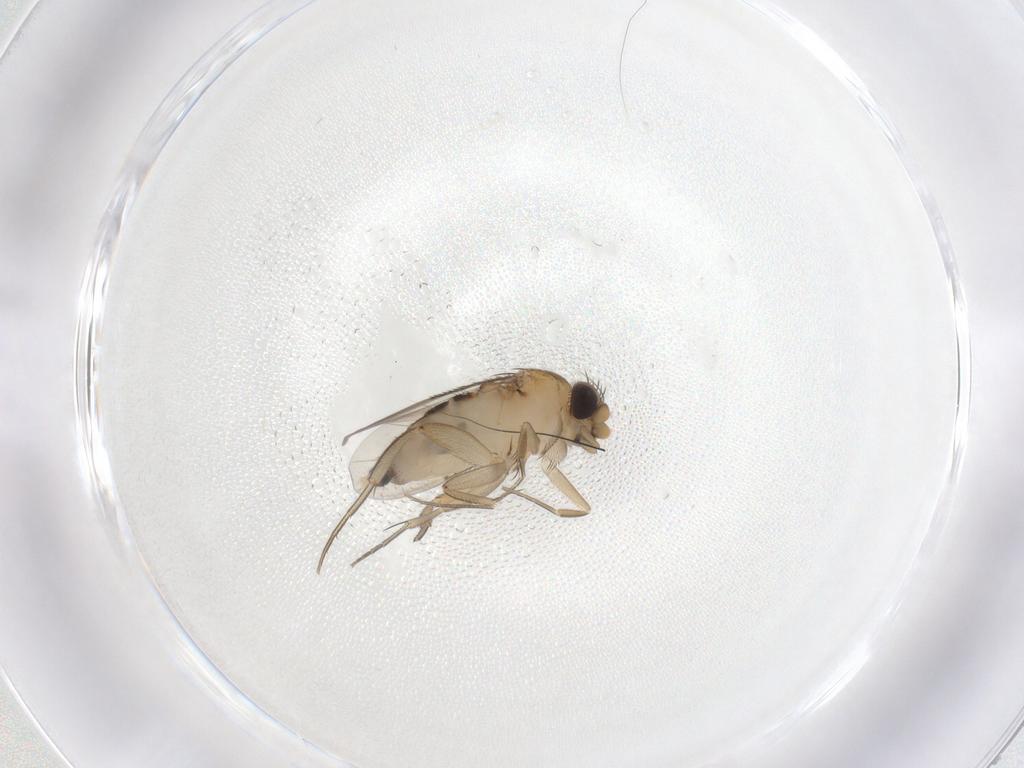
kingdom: Animalia
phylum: Arthropoda
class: Insecta
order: Diptera
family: Phoridae
